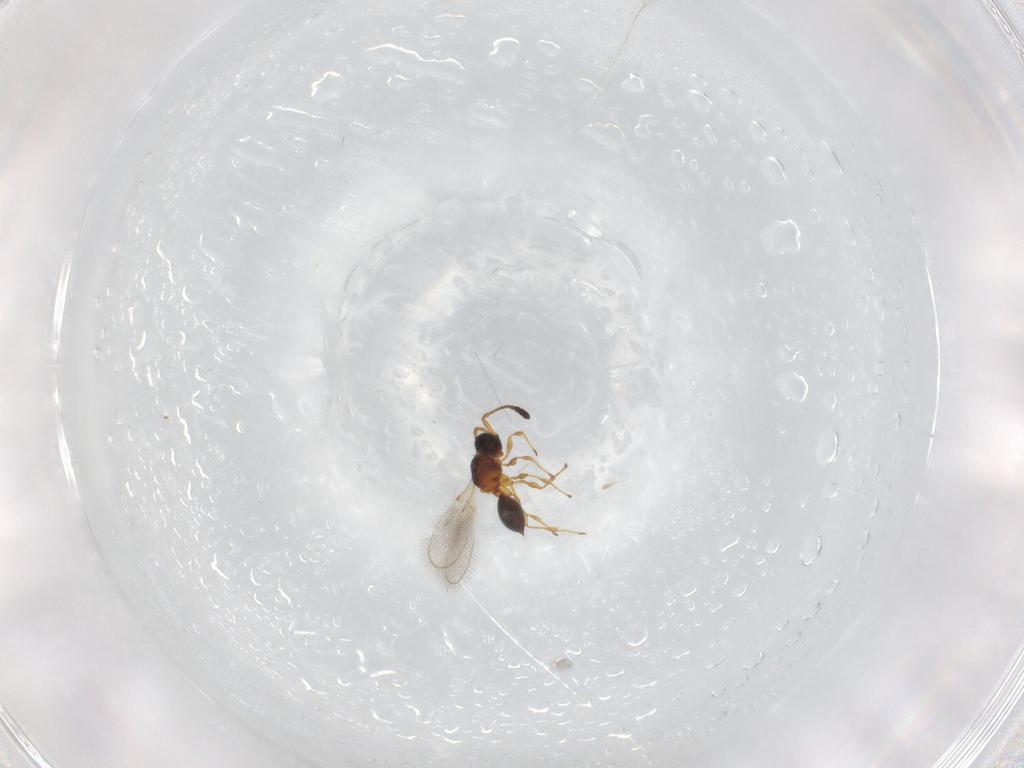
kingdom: Animalia
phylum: Arthropoda
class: Insecta
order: Hymenoptera
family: Diapriidae
